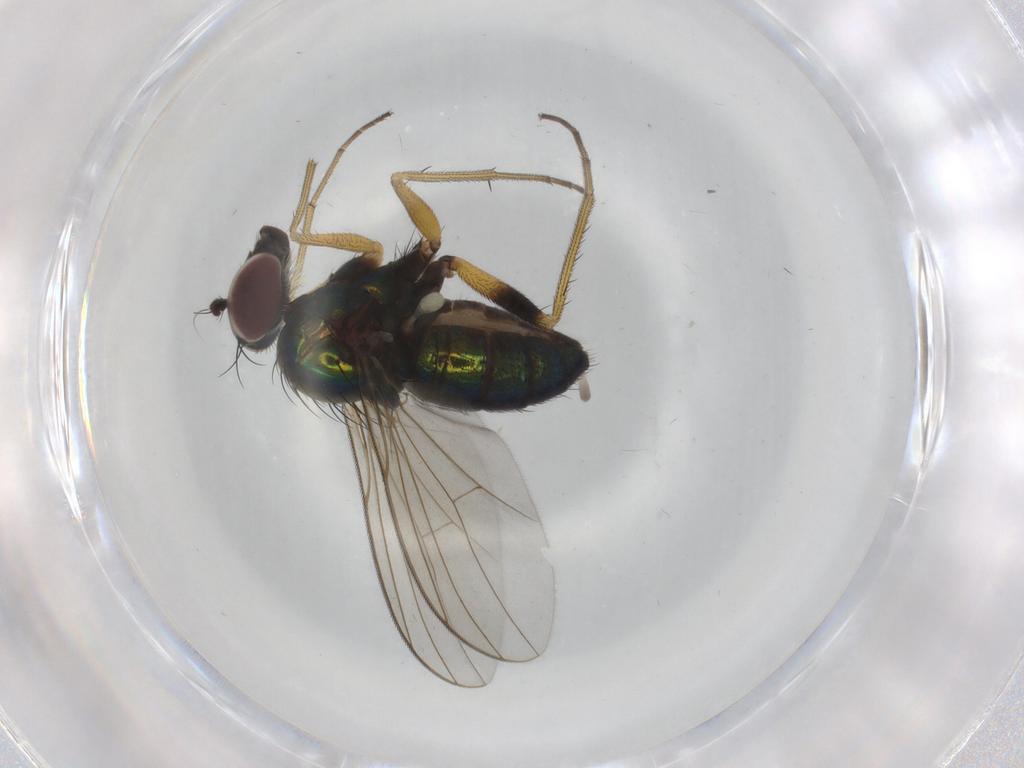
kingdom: Animalia
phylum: Arthropoda
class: Insecta
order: Diptera
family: Dolichopodidae
